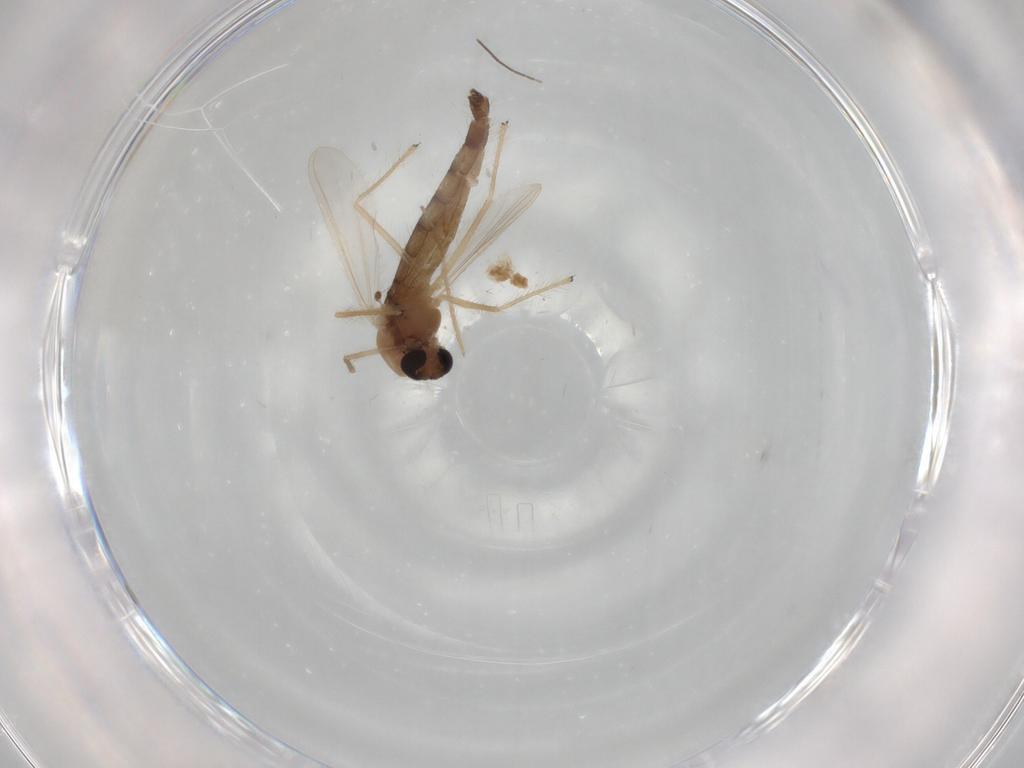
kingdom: Animalia
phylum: Arthropoda
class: Insecta
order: Diptera
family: Chironomidae
